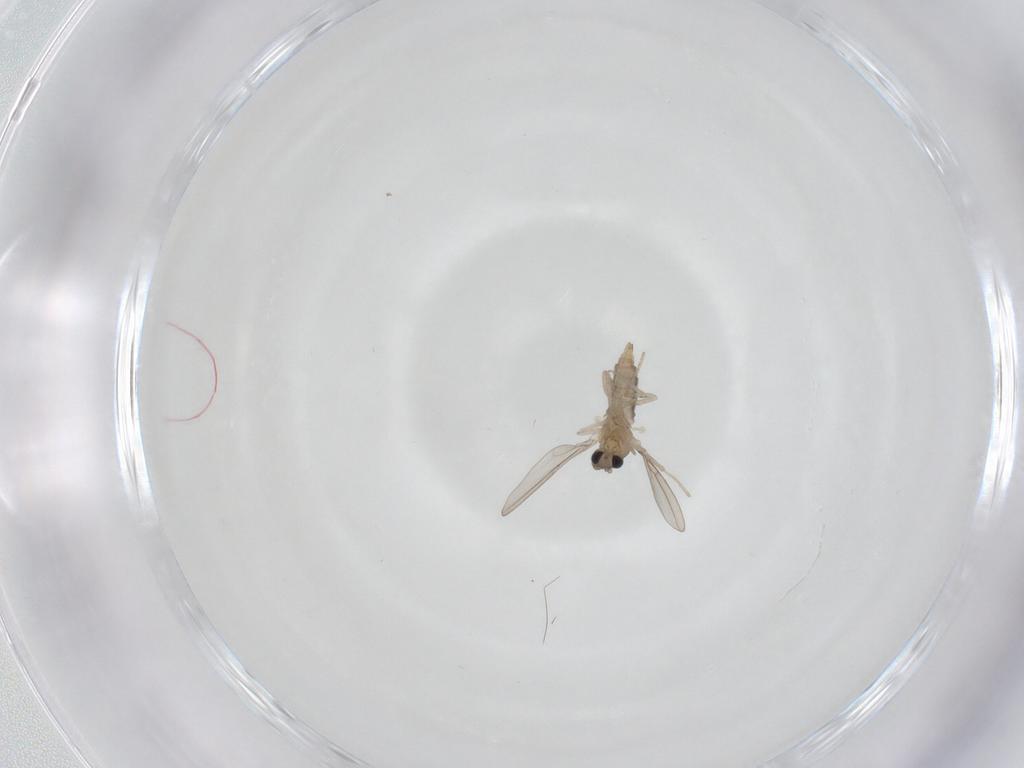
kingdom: Animalia
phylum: Arthropoda
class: Insecta
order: Diptera
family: Cecidomyiidae
